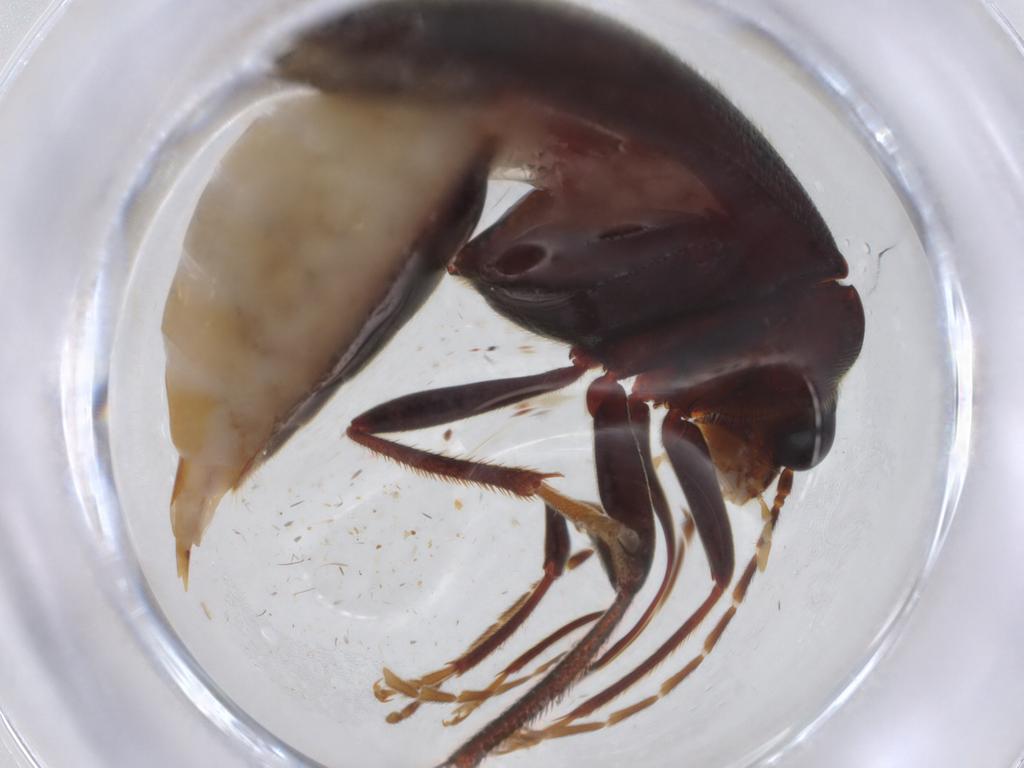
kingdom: Animalia
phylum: Arthropoda
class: Insecta
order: Coleoptera
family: Ptilodactylidae
